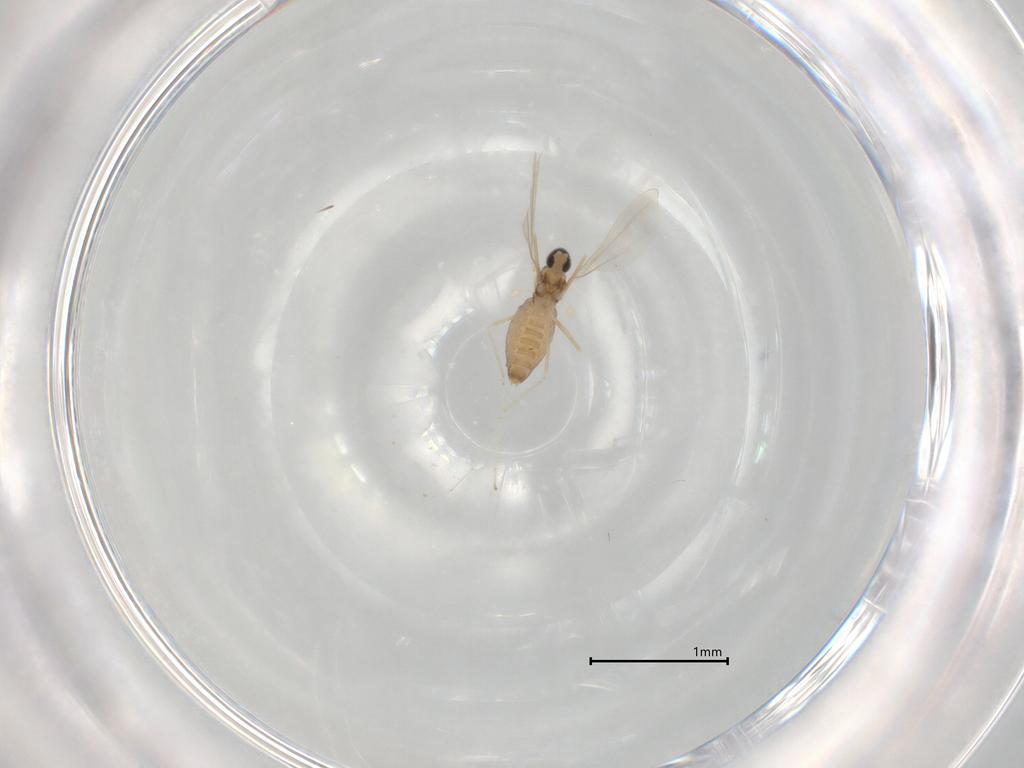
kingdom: Animalia
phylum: Arthropoda
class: Insecta
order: Diptera
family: Cecidomyiidae
